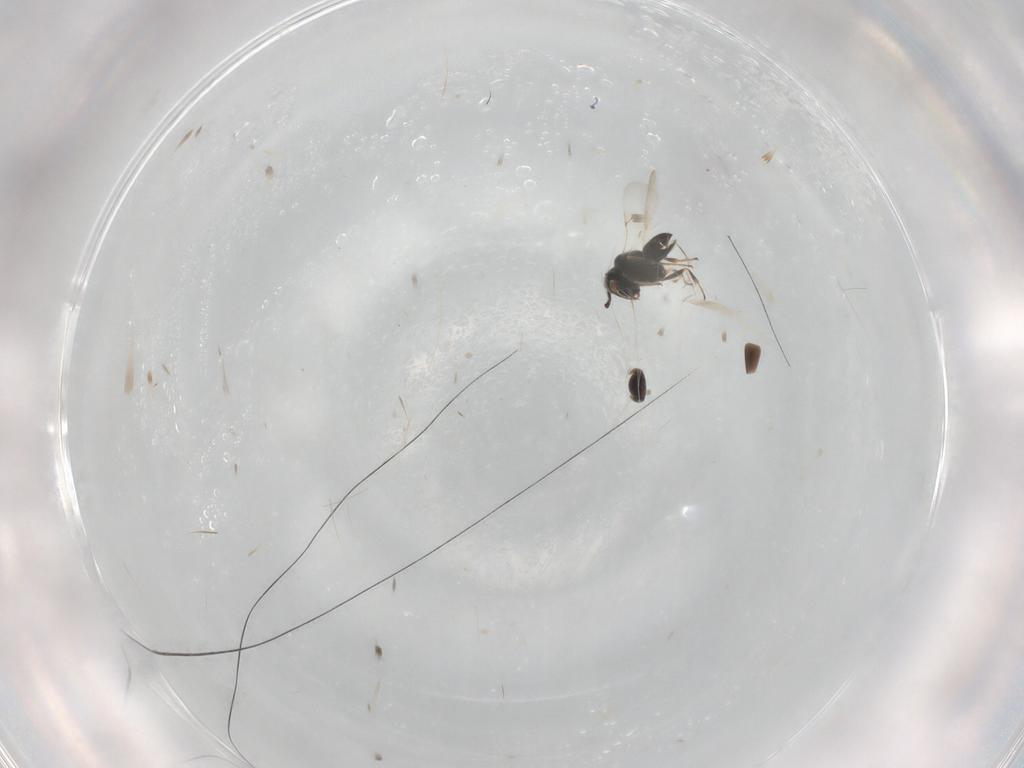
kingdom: Animalia
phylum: Arthropoda
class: Insecta
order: Hymenoptera
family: Scelionidae
